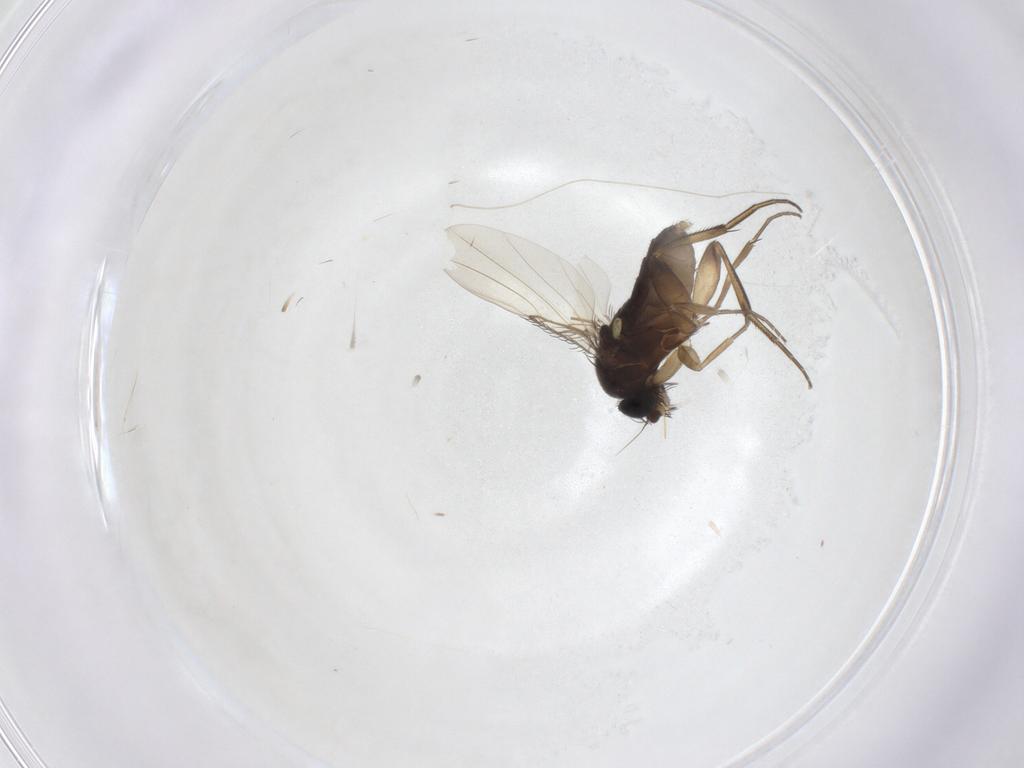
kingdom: Animalia
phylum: Arthropoda
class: Insecta
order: Diptera
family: Phoridae
